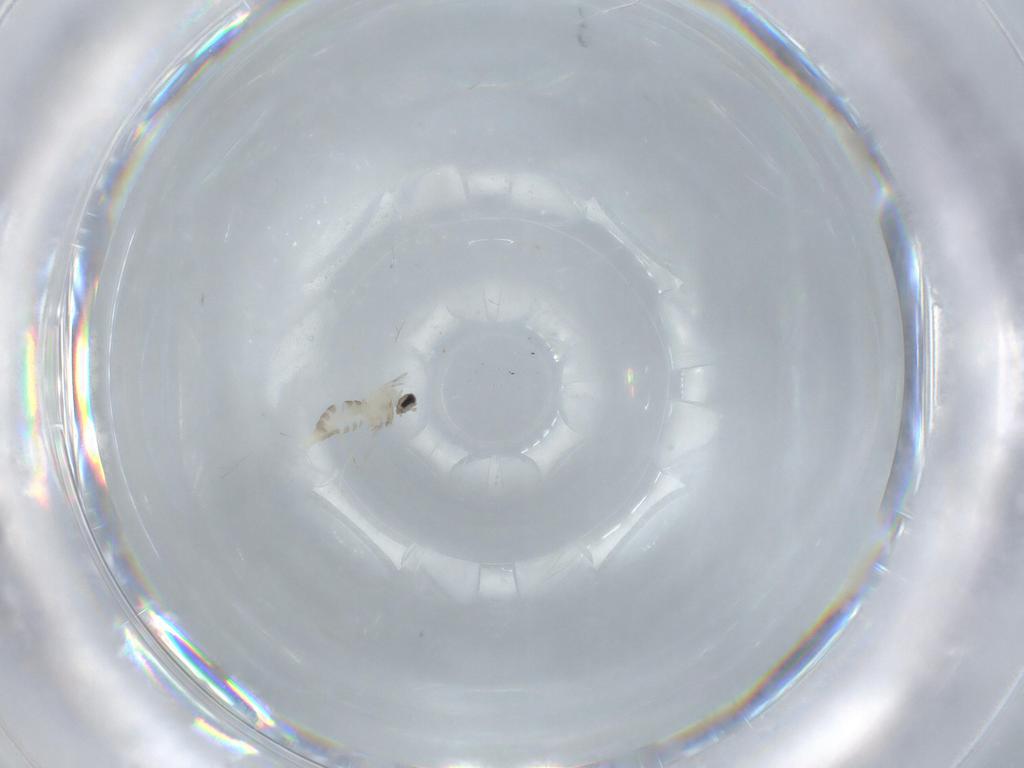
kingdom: Animalia
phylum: Arthropoda
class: Insecta
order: Diptera
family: Cecidomyiidae
